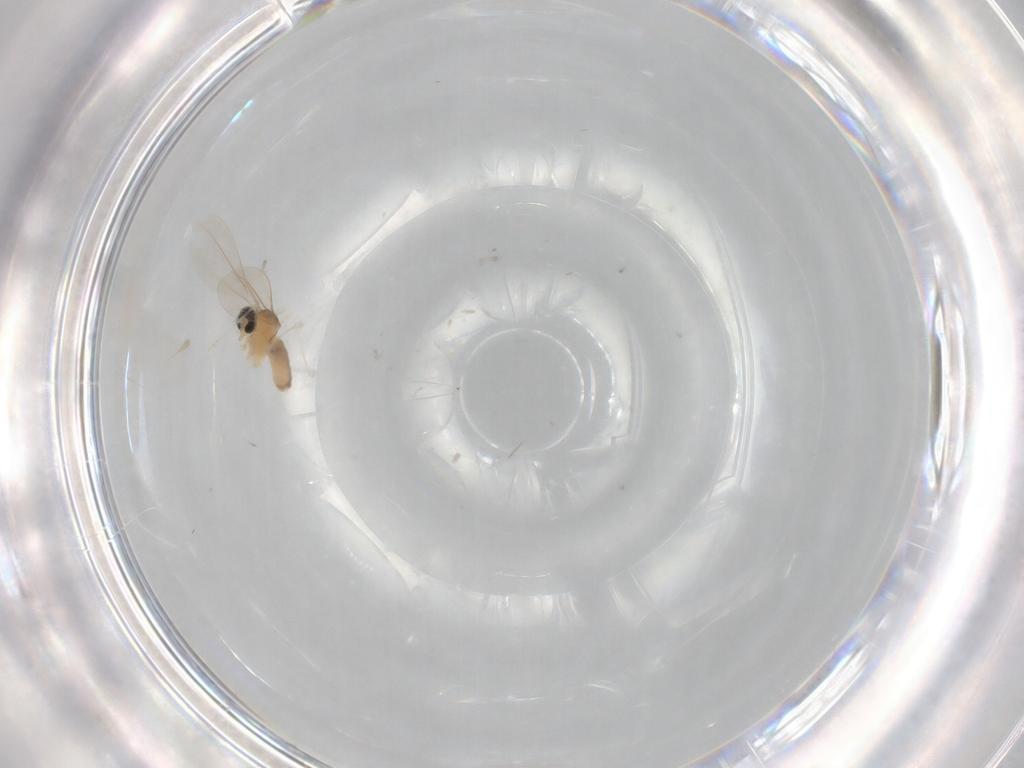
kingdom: Animalia
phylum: Arthropoda
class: Insecta
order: Diptera
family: Cecidomyiidae
